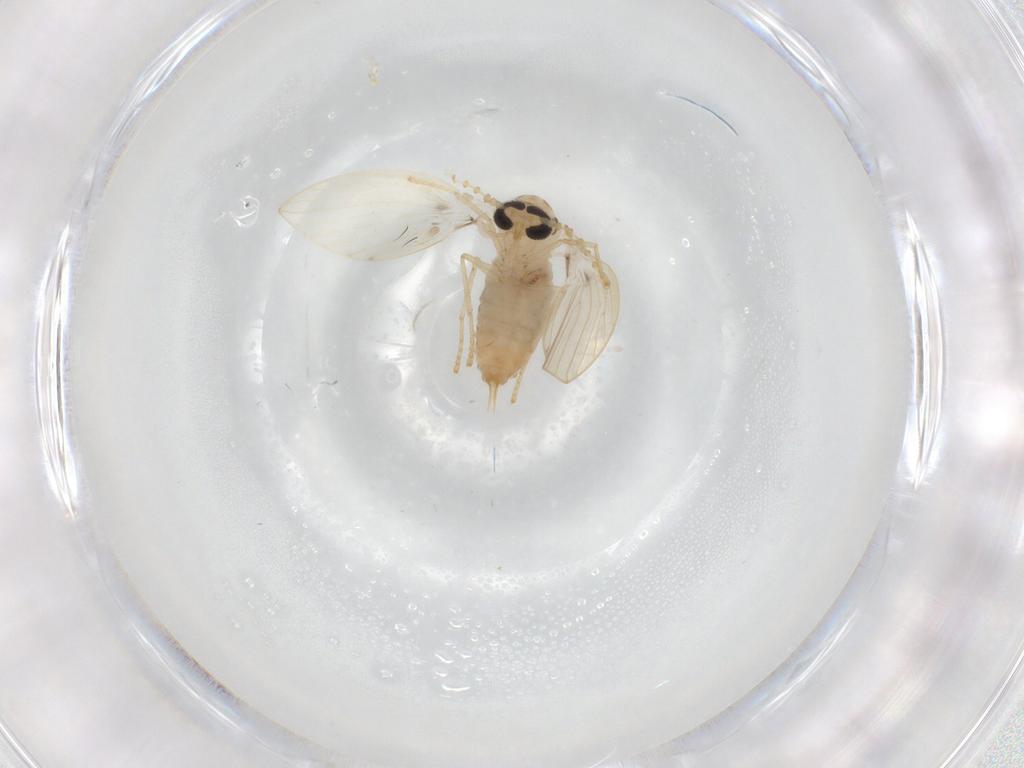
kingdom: Animalia
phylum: Arthropoda
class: Insecta
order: Diptera
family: Psychodidae
